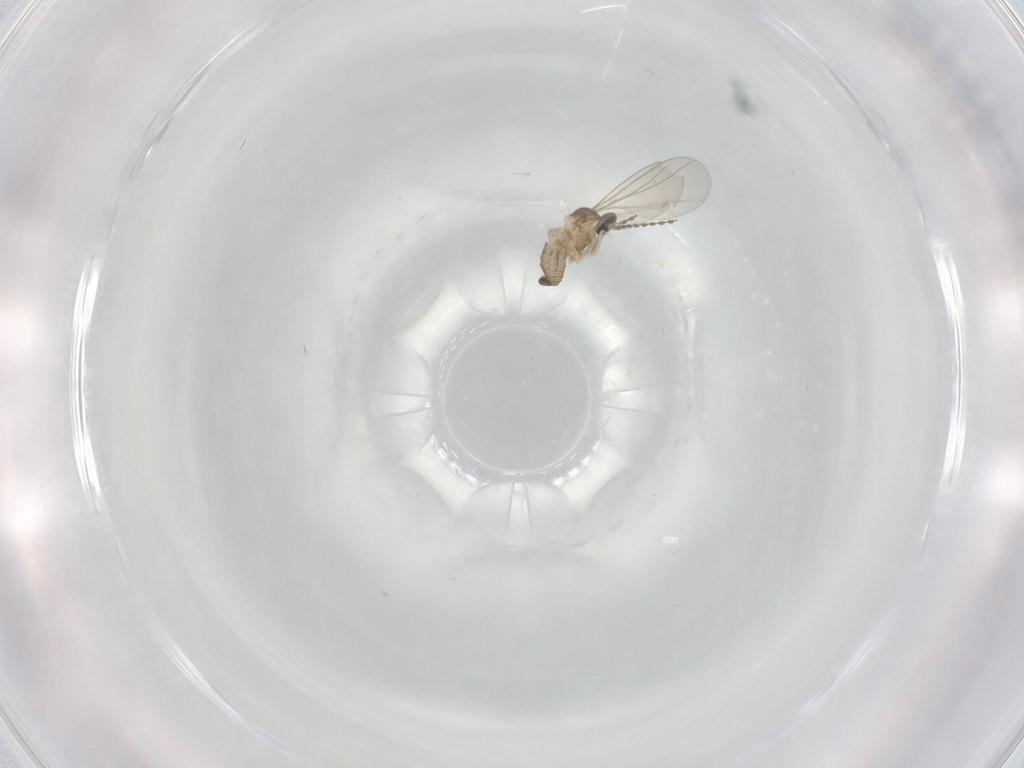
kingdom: Animalia
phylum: Arthropoda
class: Insecta
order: Diptera
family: Cecidomyiidae
